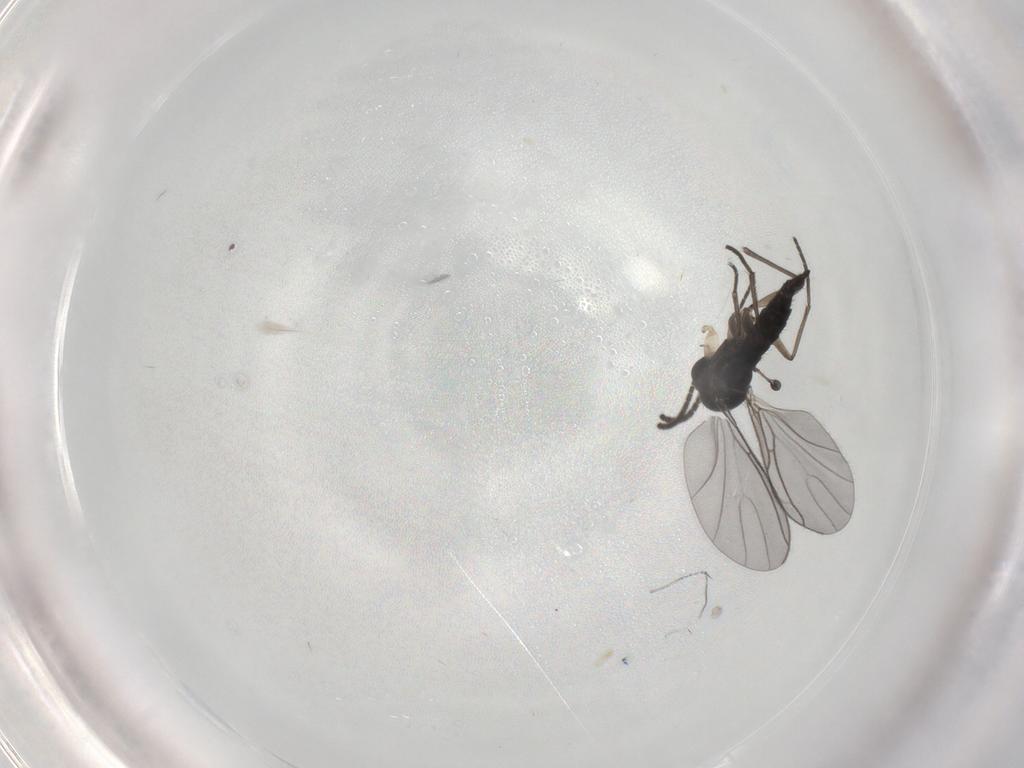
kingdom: Animalia
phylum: Arthropoda
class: Insecta
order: Diptera
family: Sciaridae
